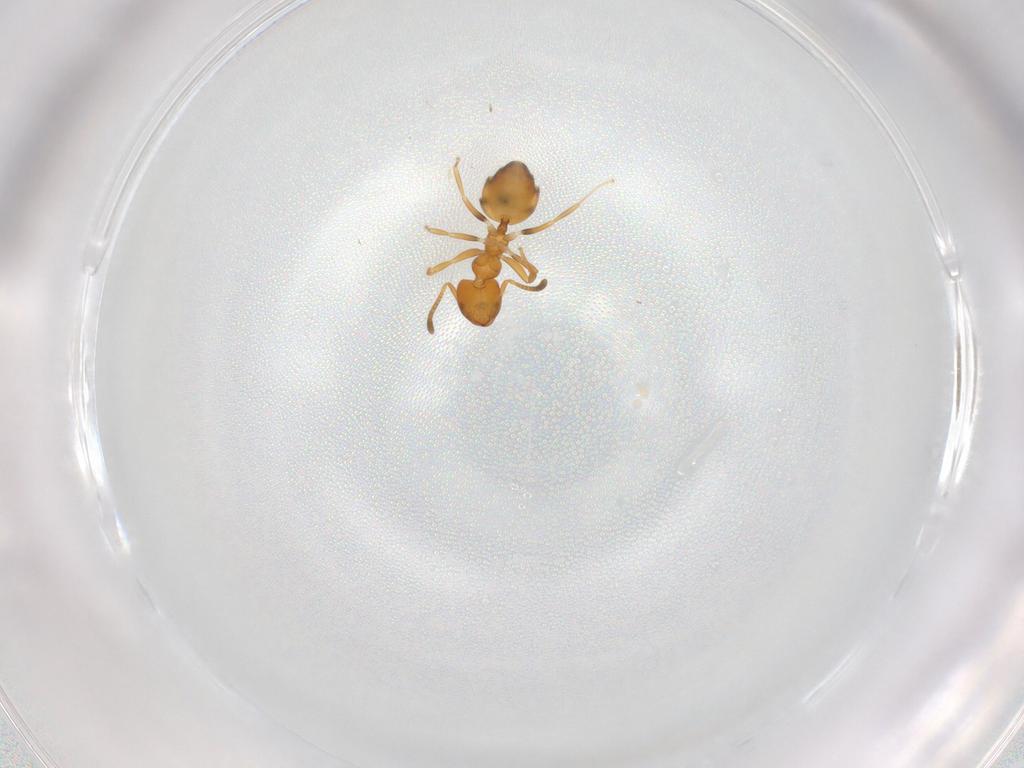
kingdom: Animalia
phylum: Arthropoda
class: Insecta
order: Hymenoptera
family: Formicidae
